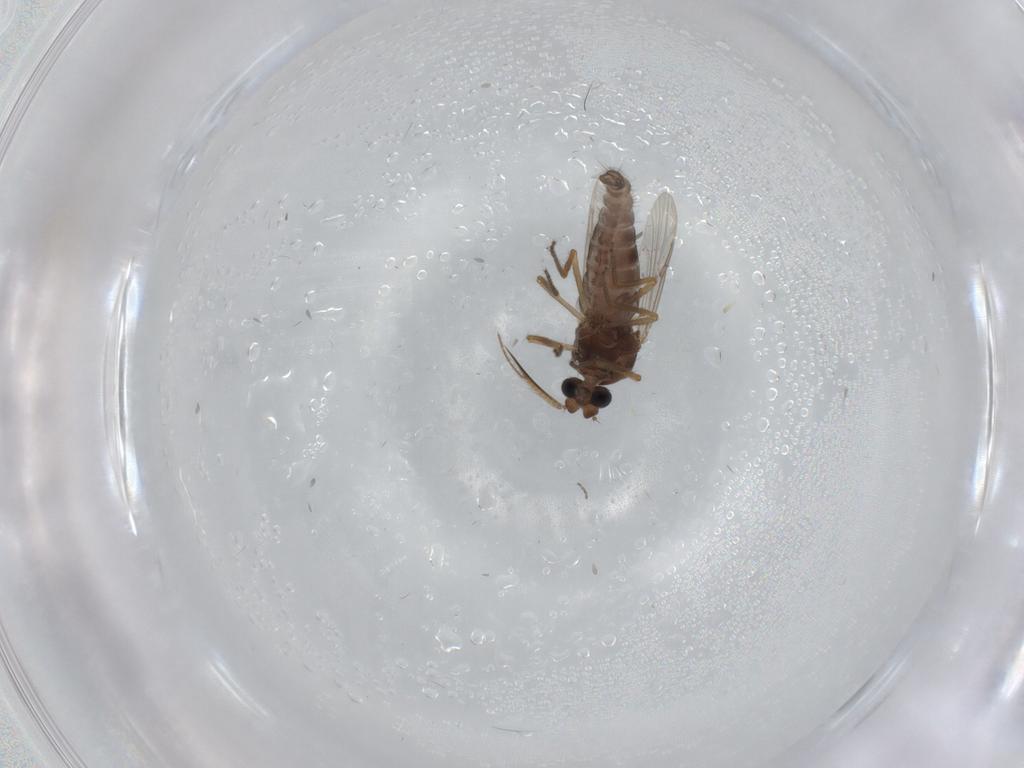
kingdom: Animalia
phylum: Arthropoda
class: Insecta
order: Diptera
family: Ceratopogonidae
